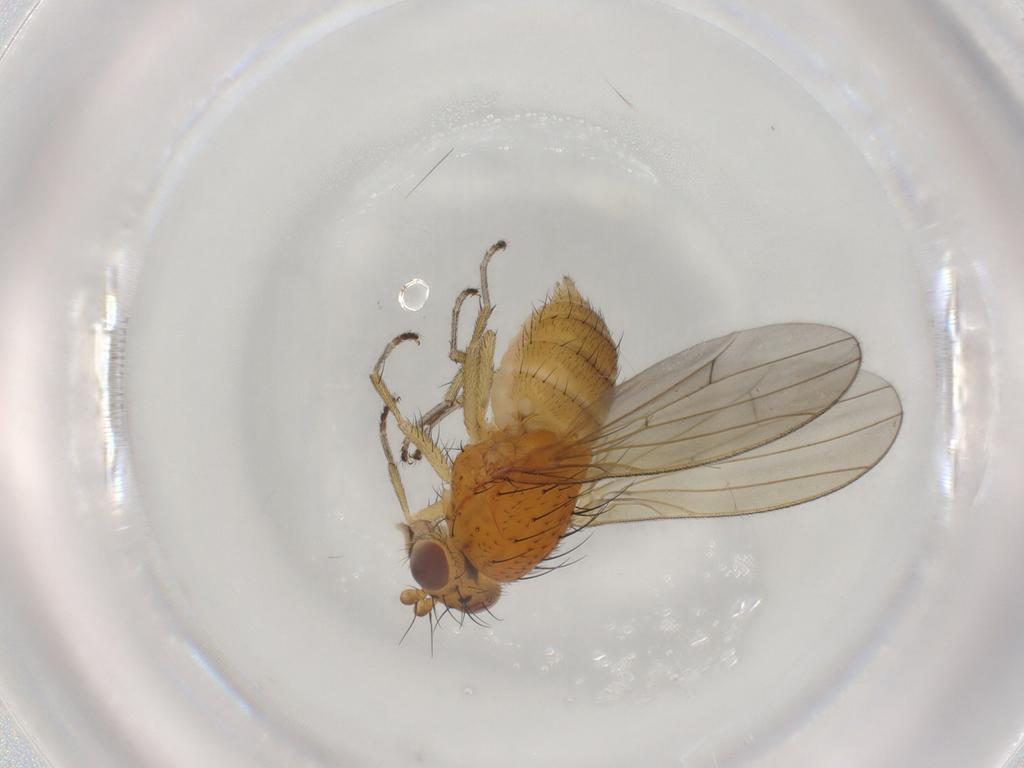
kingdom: Animalia
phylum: Arthropoda
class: Insecta
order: Diptera
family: Lauxaniidae
